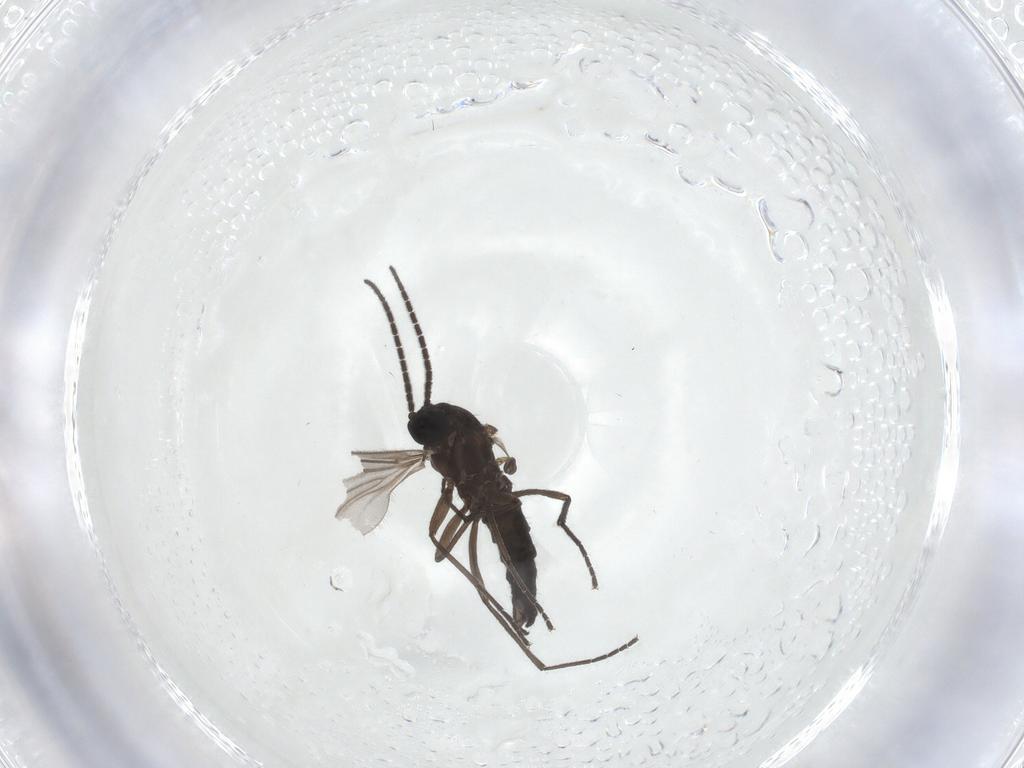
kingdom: Animalia
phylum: Arthropoda
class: Insecta
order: Diptera
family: Sciaridae
